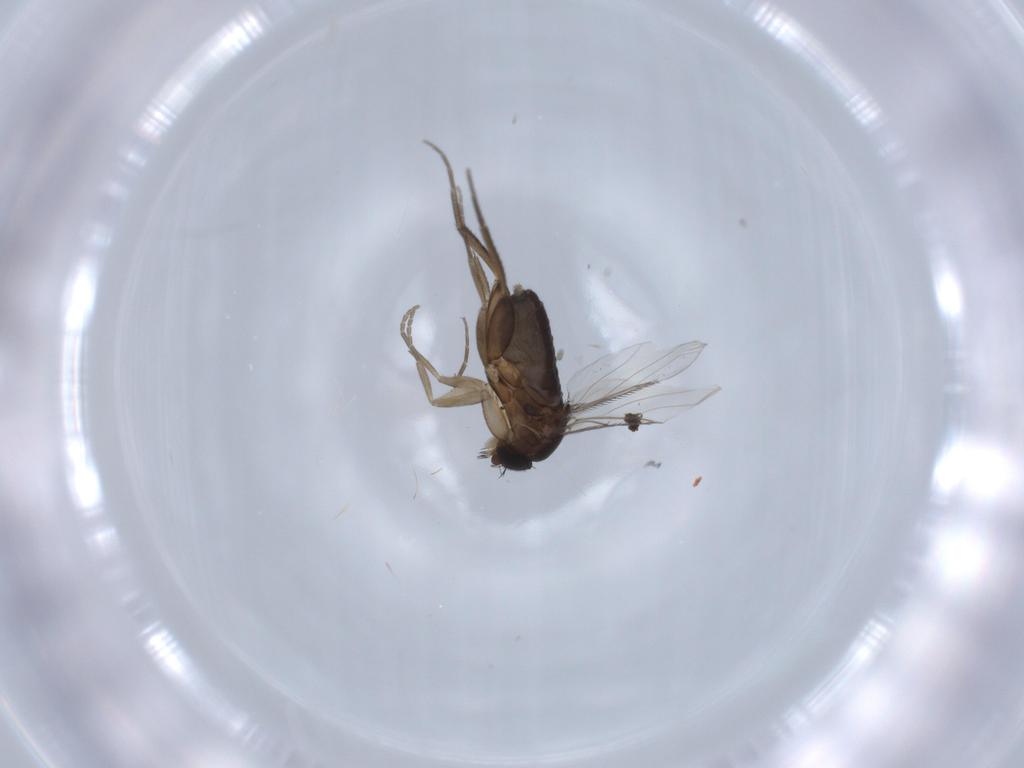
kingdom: Animalia
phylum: Arthropoda
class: Insecta
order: Diptera
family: Phoridae
